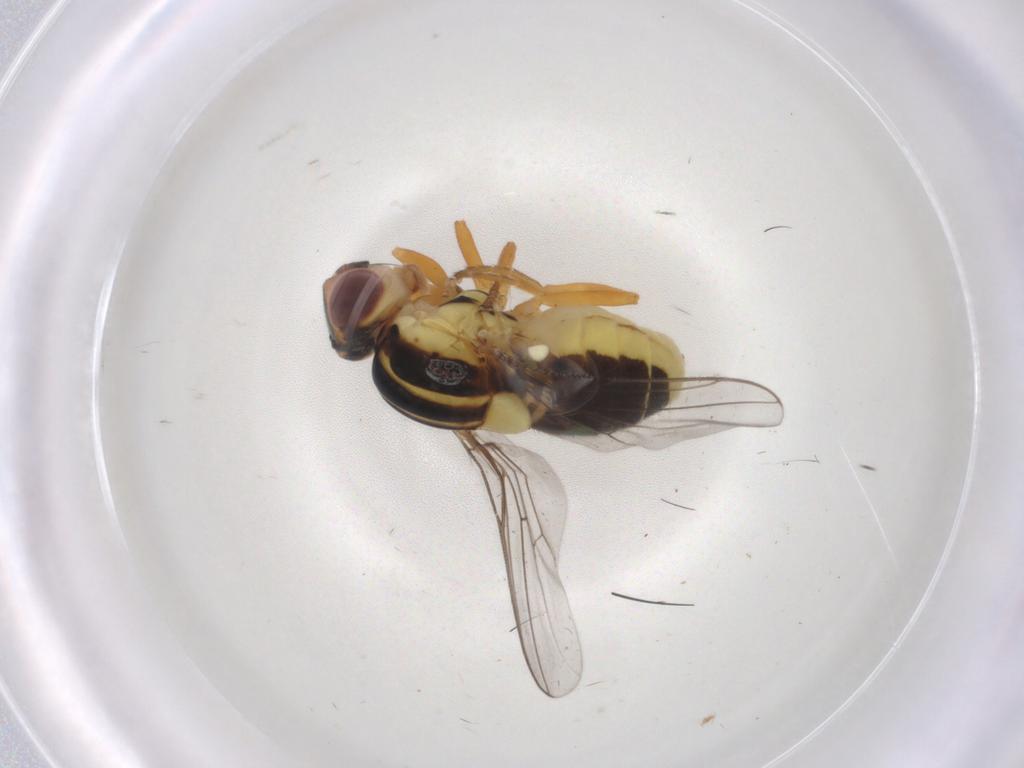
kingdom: Animalia
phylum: Arthropoda
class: Insecta
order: Diptera
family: Chloropidae
